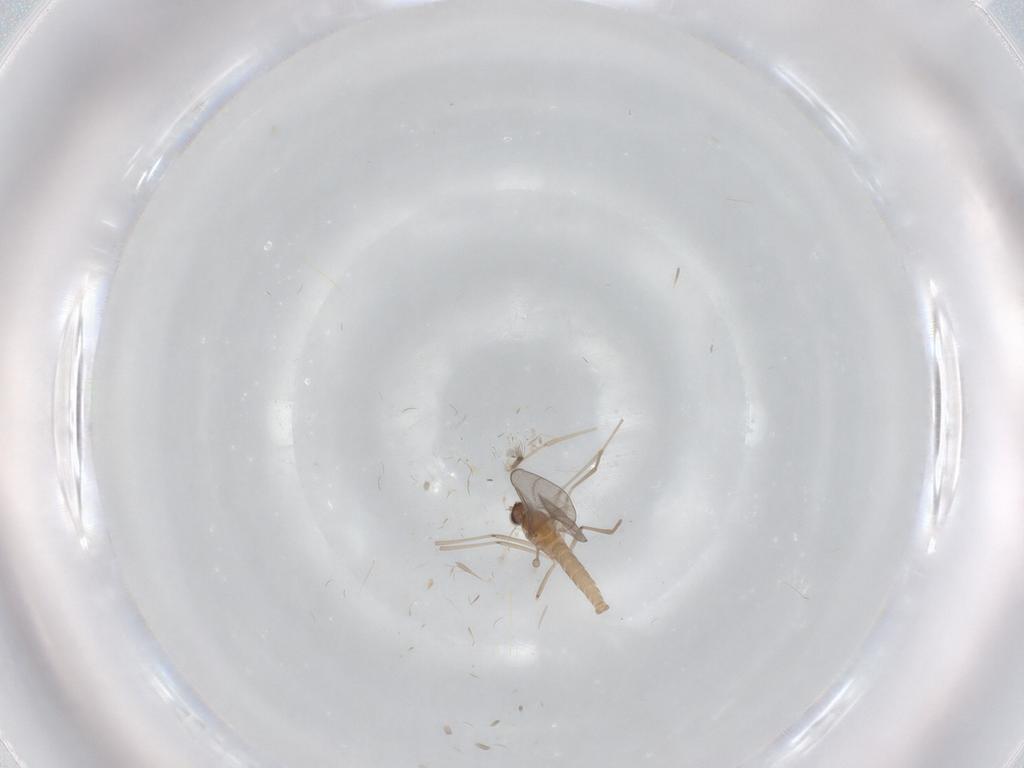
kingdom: Animalia
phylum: Arthropoda
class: Insecta
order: Diptera
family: Cecidomyiidae
